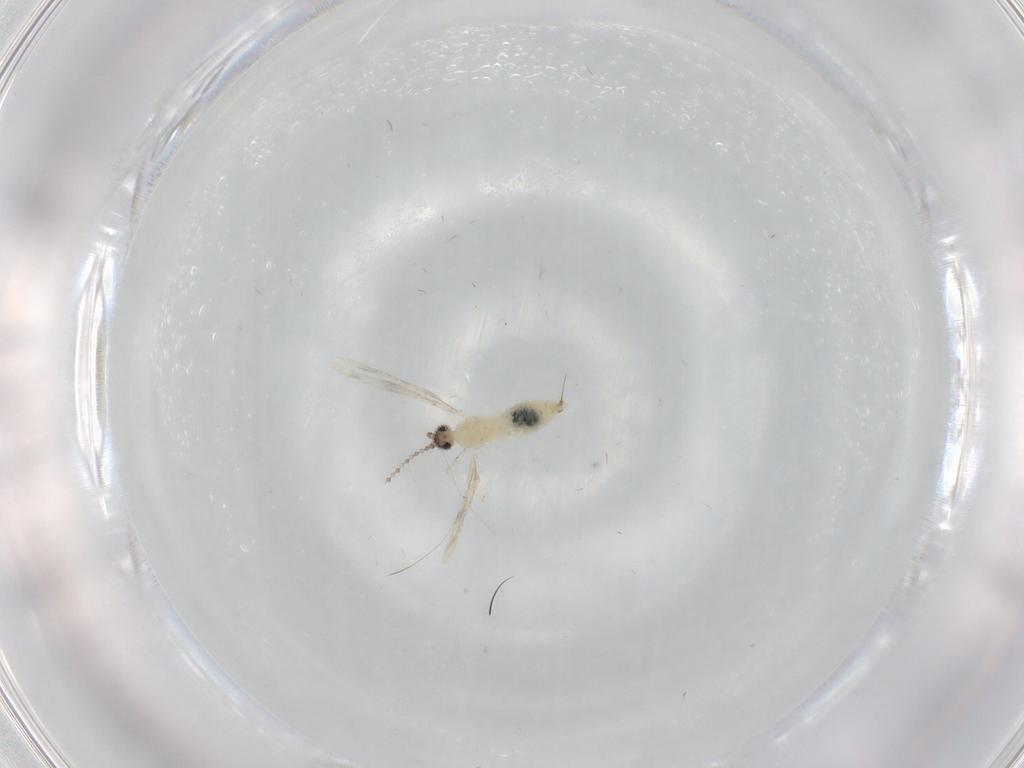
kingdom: Animalia
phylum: Arthropoda
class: Insecta
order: Diptera
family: Cecidomyiidae
